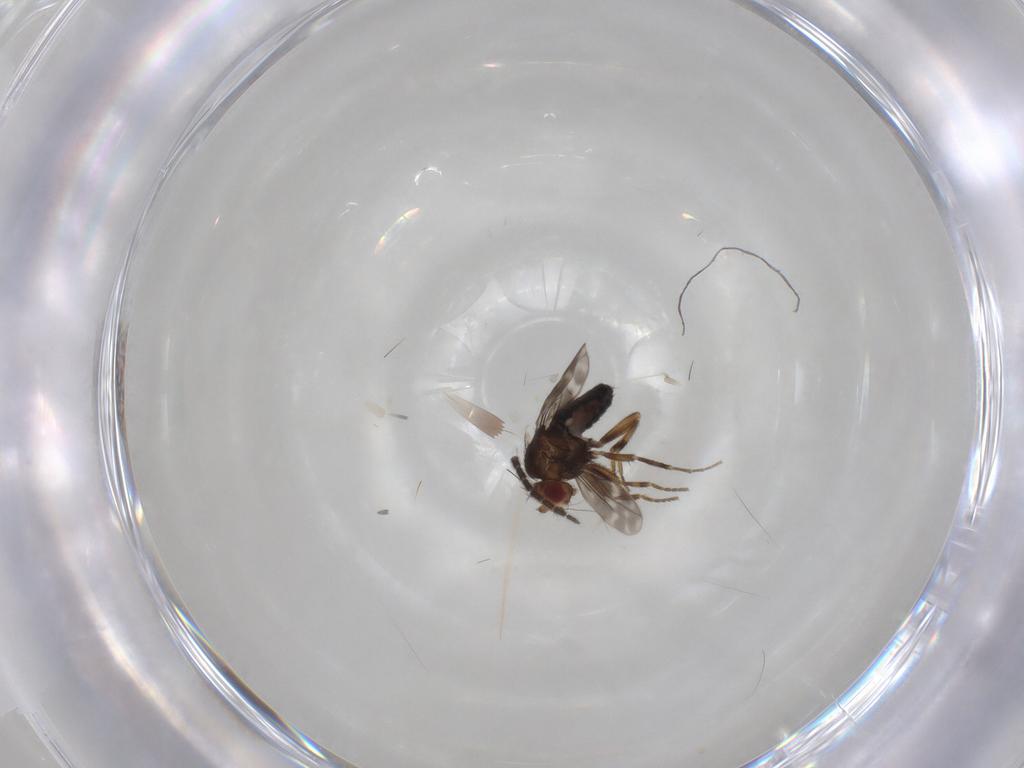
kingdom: Animalia
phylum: Arthropoda
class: Insecta
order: Diptera
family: Sphaeroceridae
